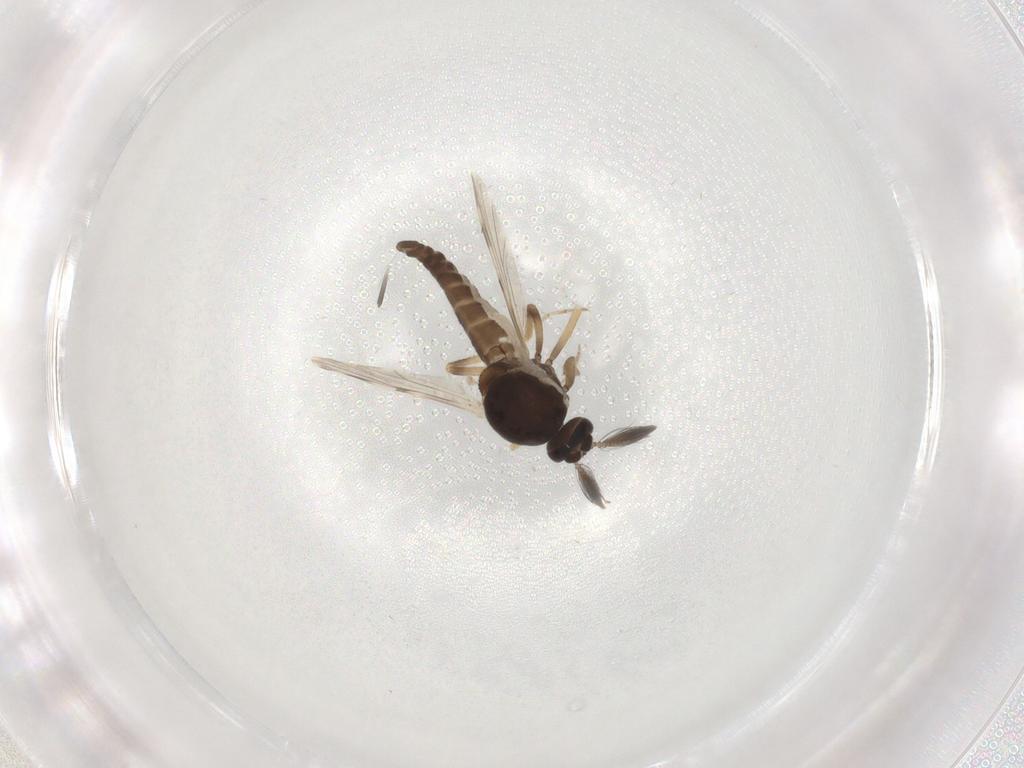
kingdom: Animalia
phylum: Arthropoda
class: Insecta
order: Diptera
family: Ceratopogonidae
